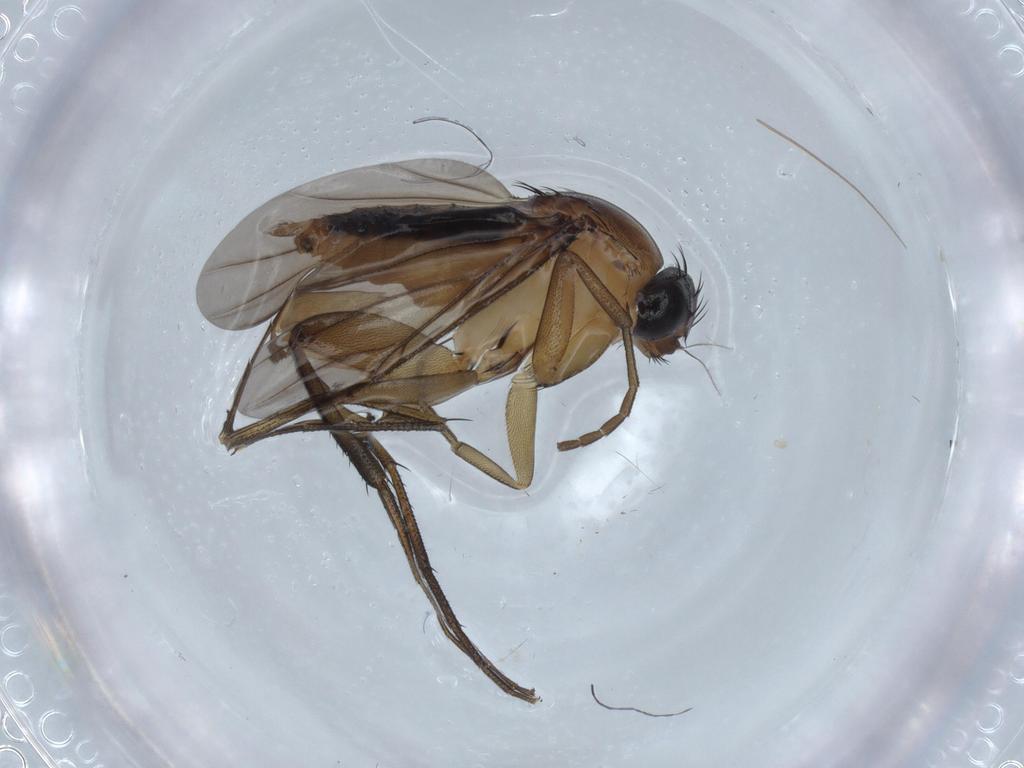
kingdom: Animalia
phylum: Arthropoda
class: Insecta
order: Diptera
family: Phoridae
